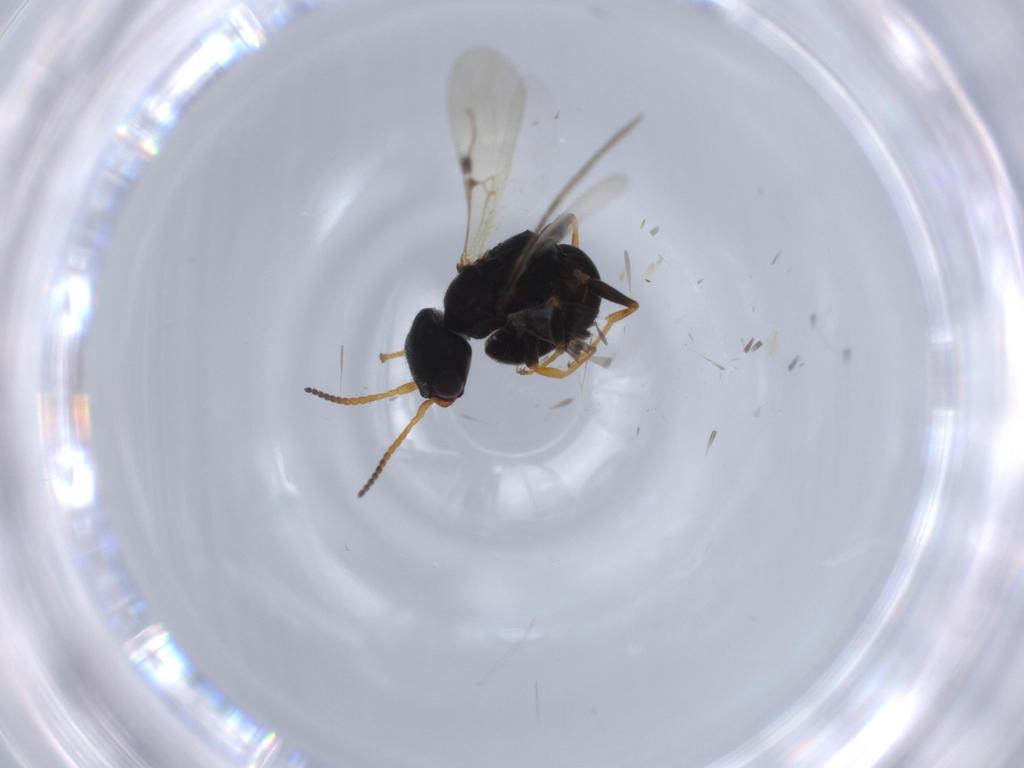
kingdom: Animalia
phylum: Arthropoda
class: Insecta
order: Hymenoptera
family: Bethylidae
